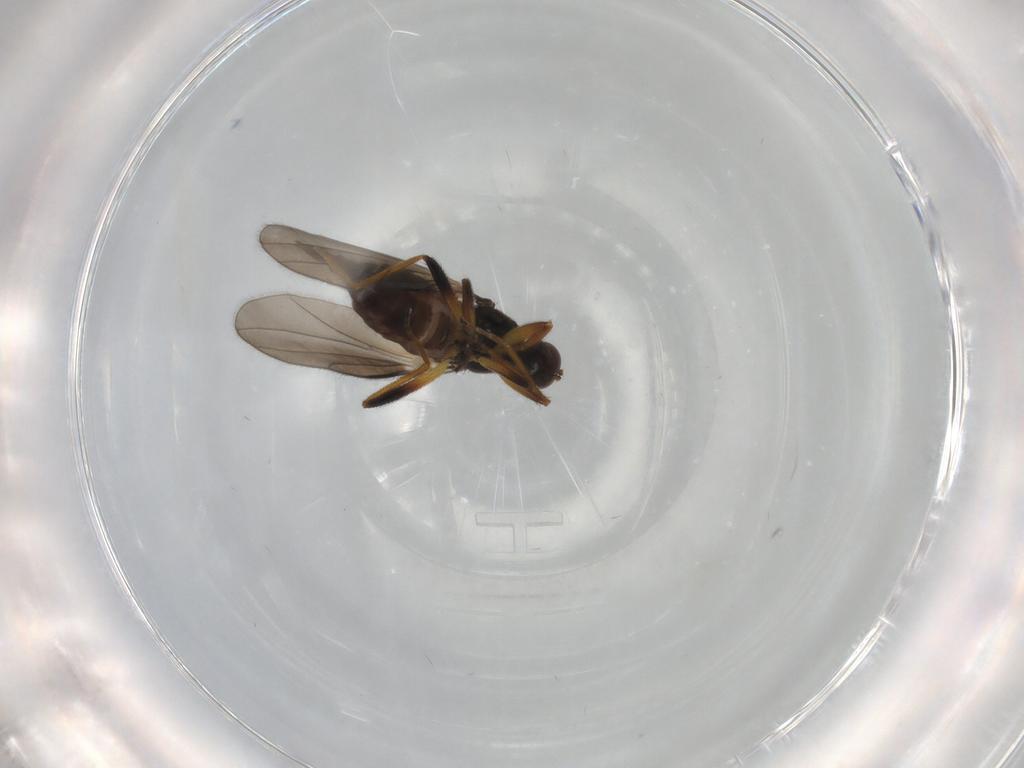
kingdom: Animalia
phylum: Arthropoda
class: Insecta
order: Diptera
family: Hybotidae
